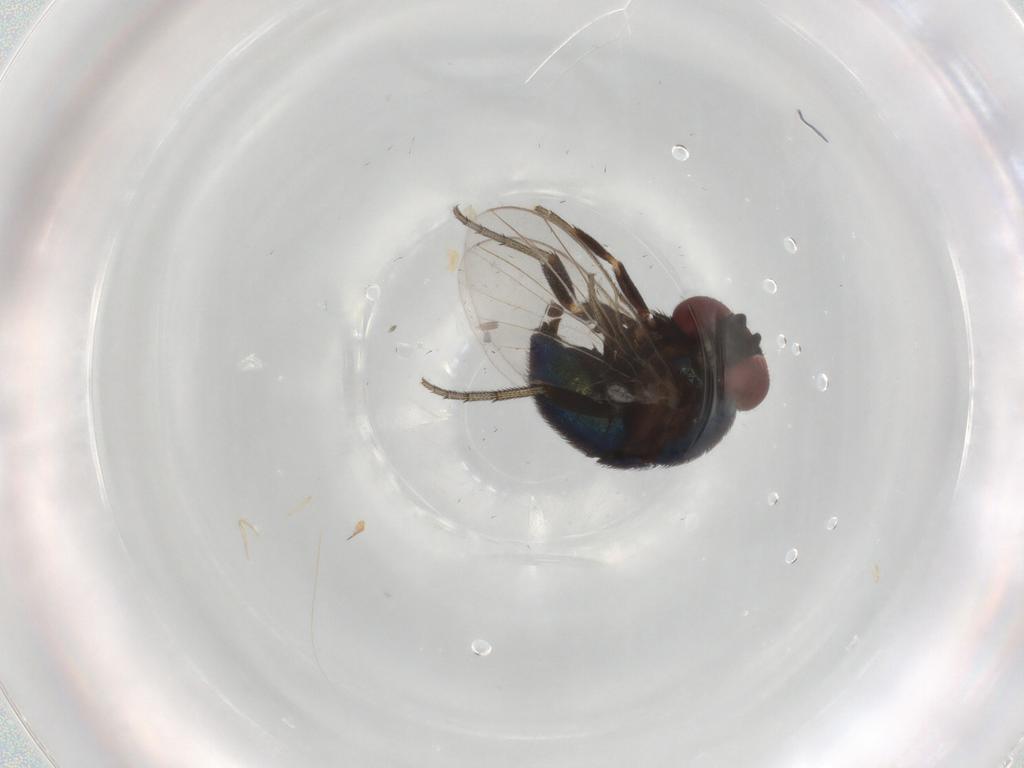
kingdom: Animalia
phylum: Arthropoda
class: Insecta
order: Diptera
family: Cryptochetidae
